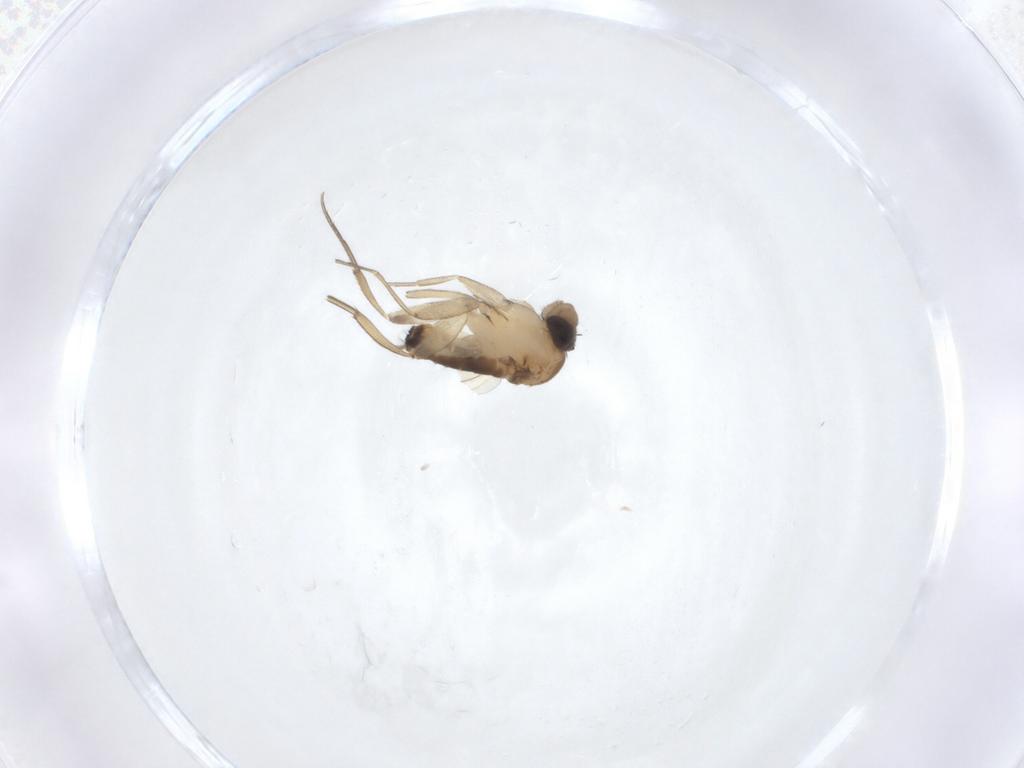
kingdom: Animalia
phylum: Arthropoda
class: Insecta
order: Diptera
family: Phoridae
